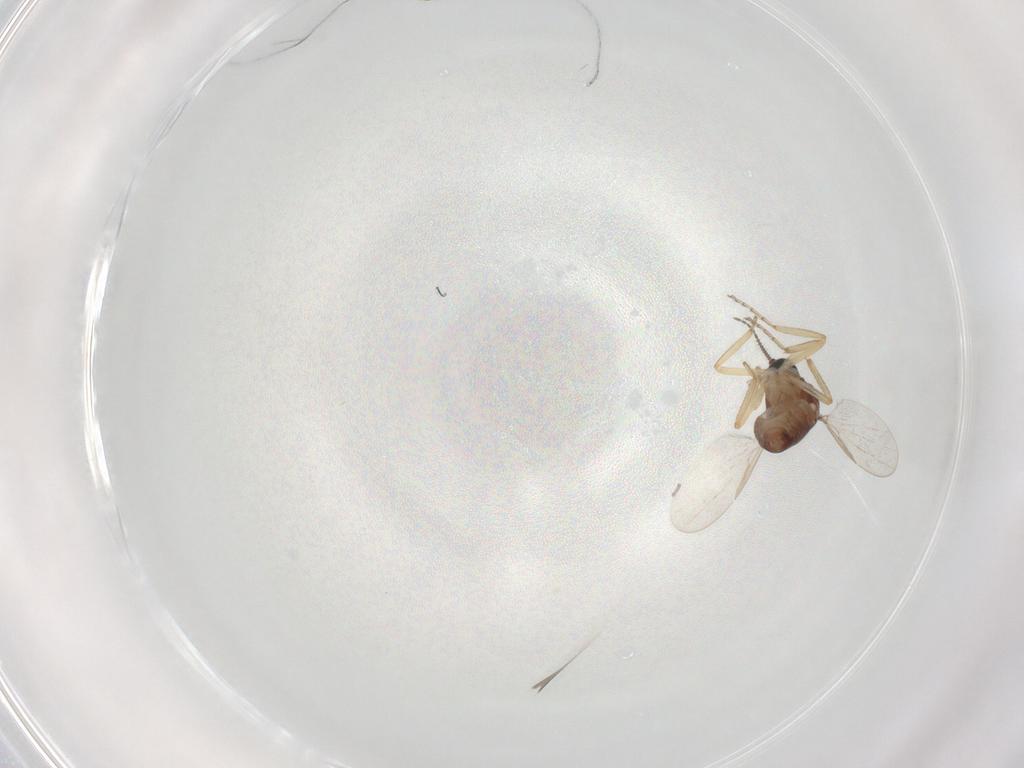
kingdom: Animalia
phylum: Arthropoda
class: Insecta
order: Diptera
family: Ceratopogonidae
